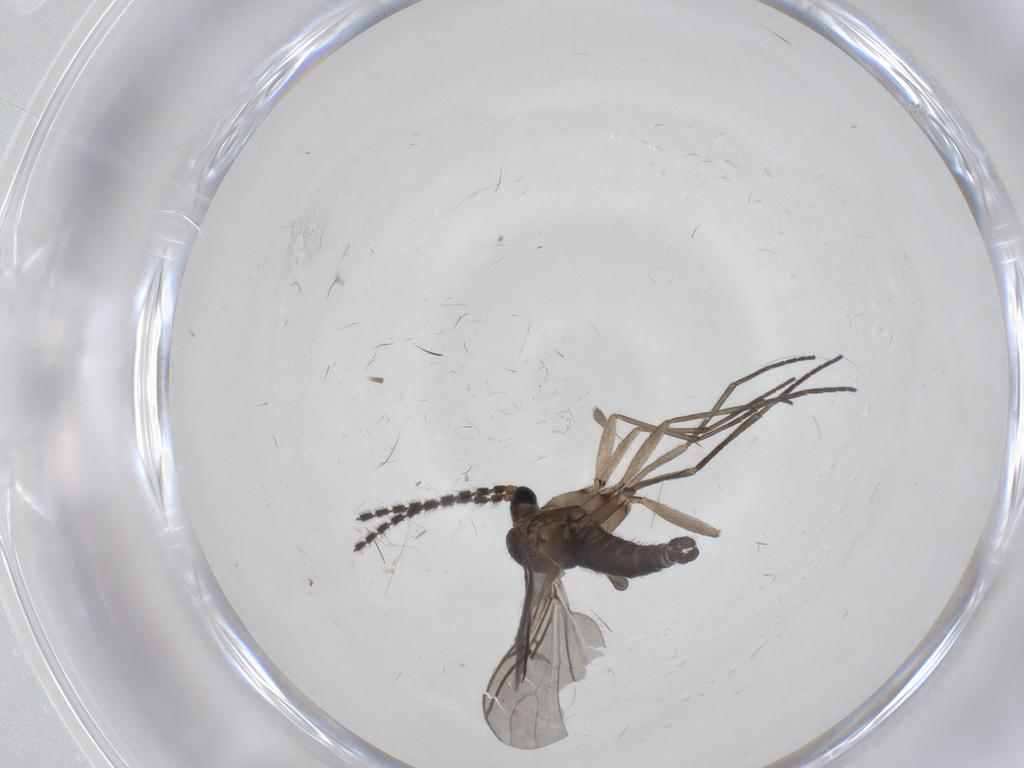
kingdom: Animalia
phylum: Arthropoda
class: Insecta
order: Diptera
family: Sciaridae
